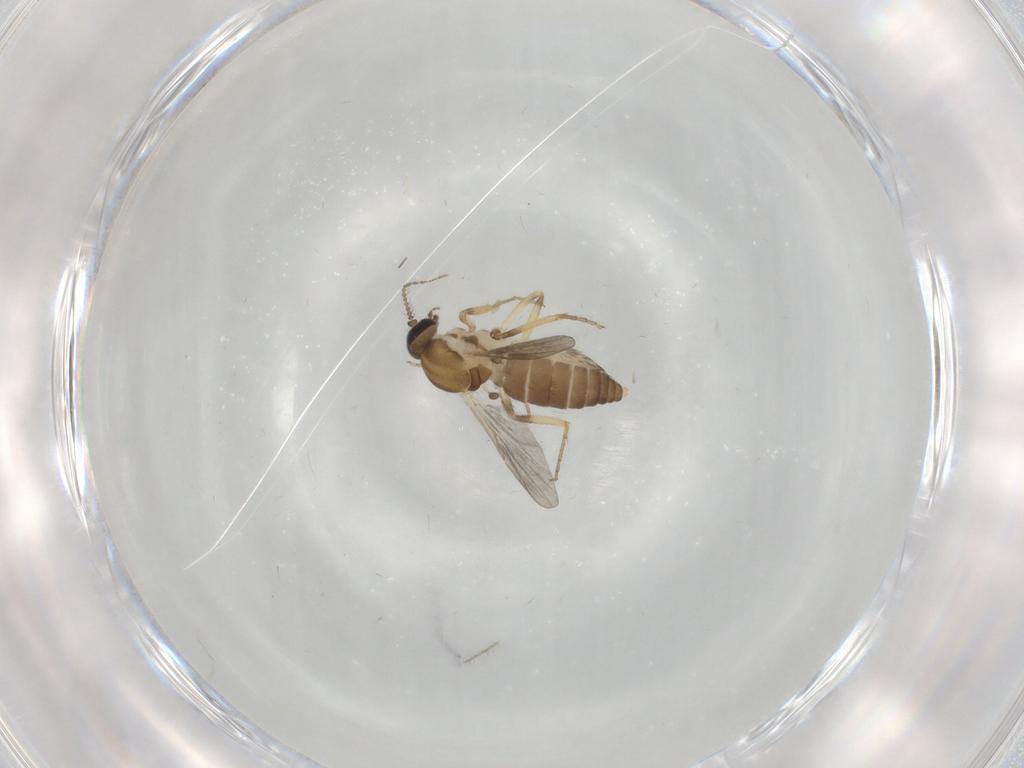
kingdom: Animalia
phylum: Arthropoda
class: Insecta
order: Diptera
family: Ceratopogonidae
